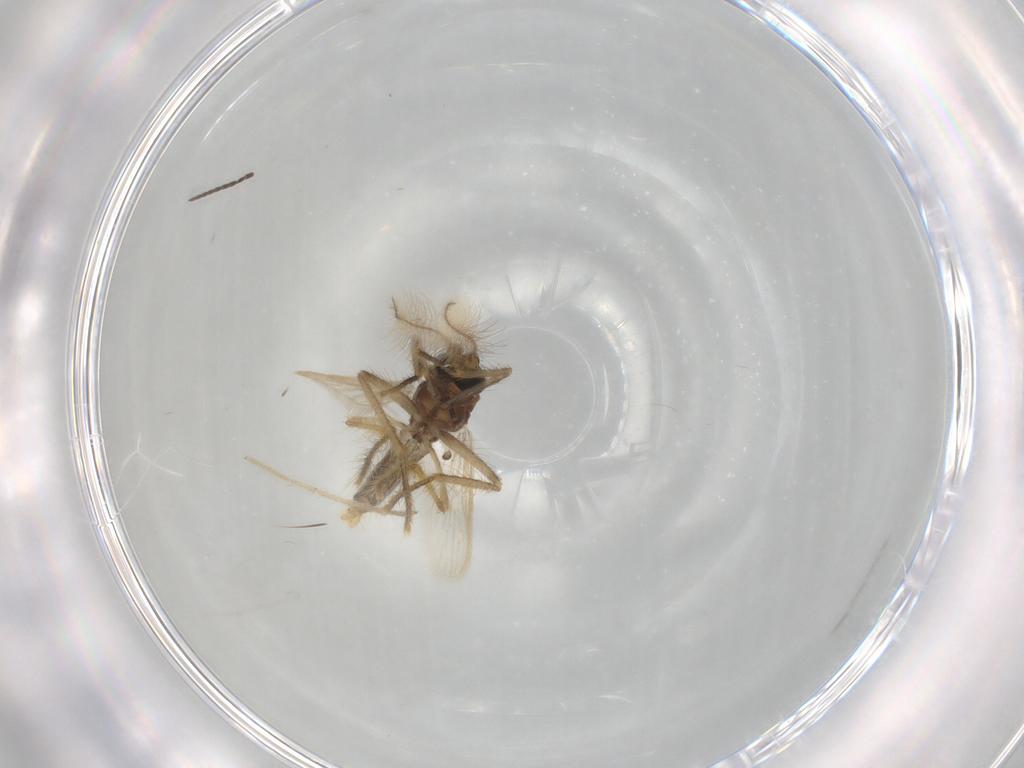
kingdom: Animalia
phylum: Arthropoda
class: Insecta
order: Diptera
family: Corethrellidae
